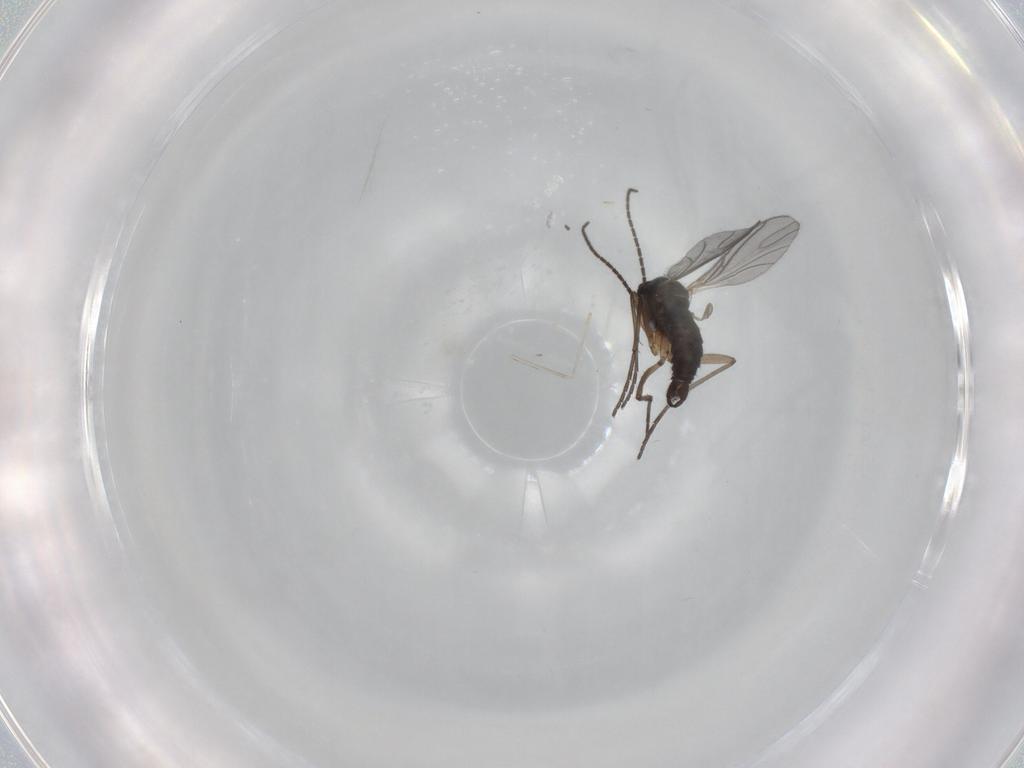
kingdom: Animalia
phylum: Arthropoda
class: Insecta
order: Diptera
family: Sciaridae
